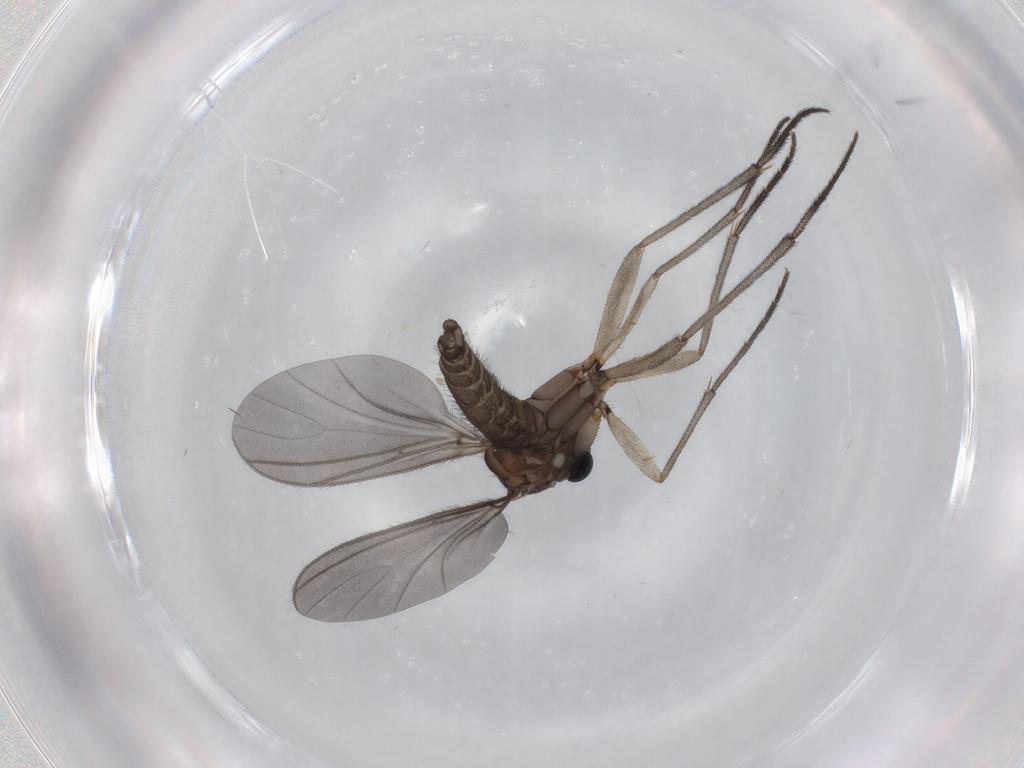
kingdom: Animalia
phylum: Arthropoda
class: Insecta
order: Diptera
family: Sciaridae
